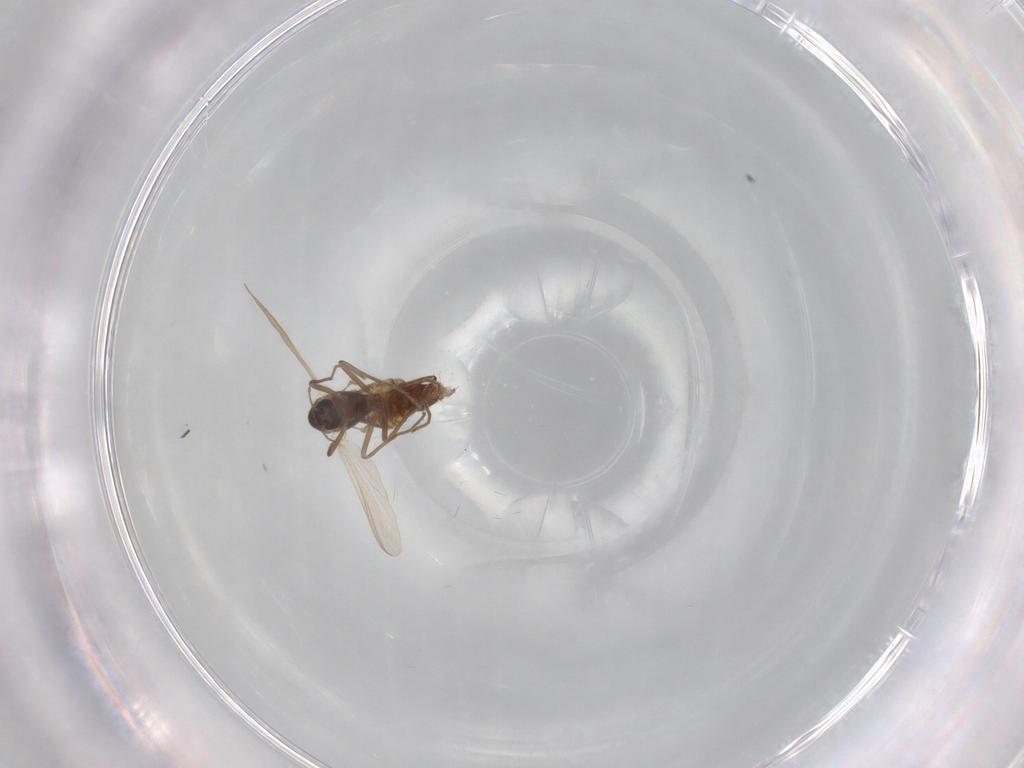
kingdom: Animalia
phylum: Arthropoda
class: Insecta
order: Diptera
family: Chironomidae
